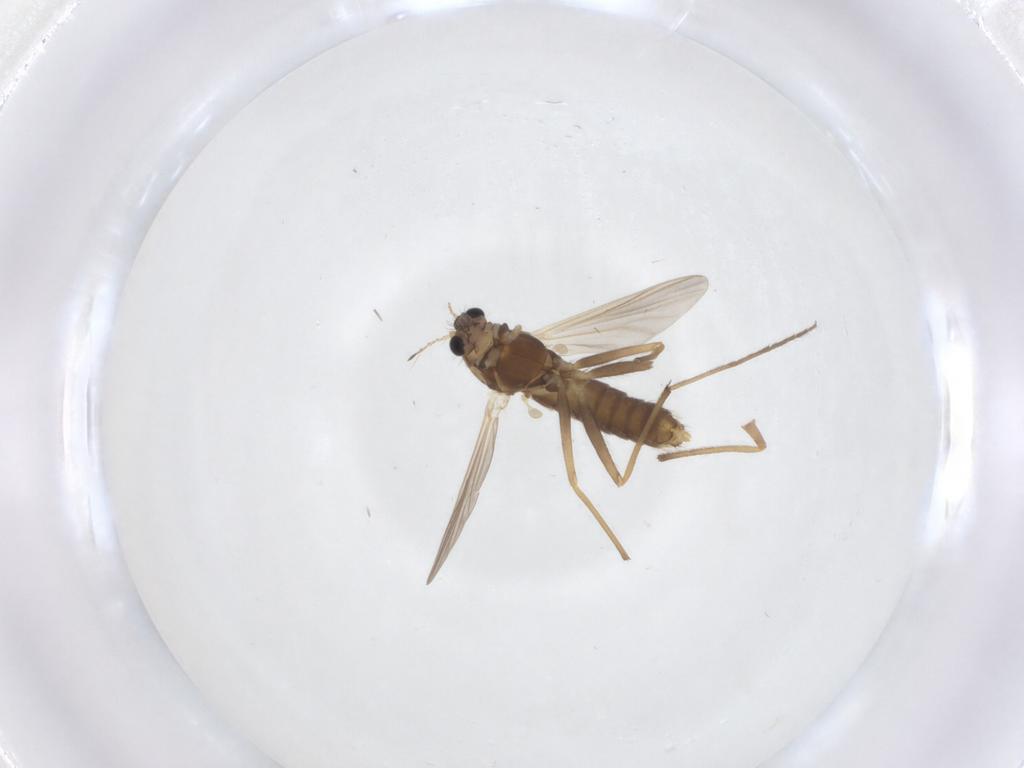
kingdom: Animalia
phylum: Arthropoda
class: Insecta
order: Diptera
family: Chironomidae
